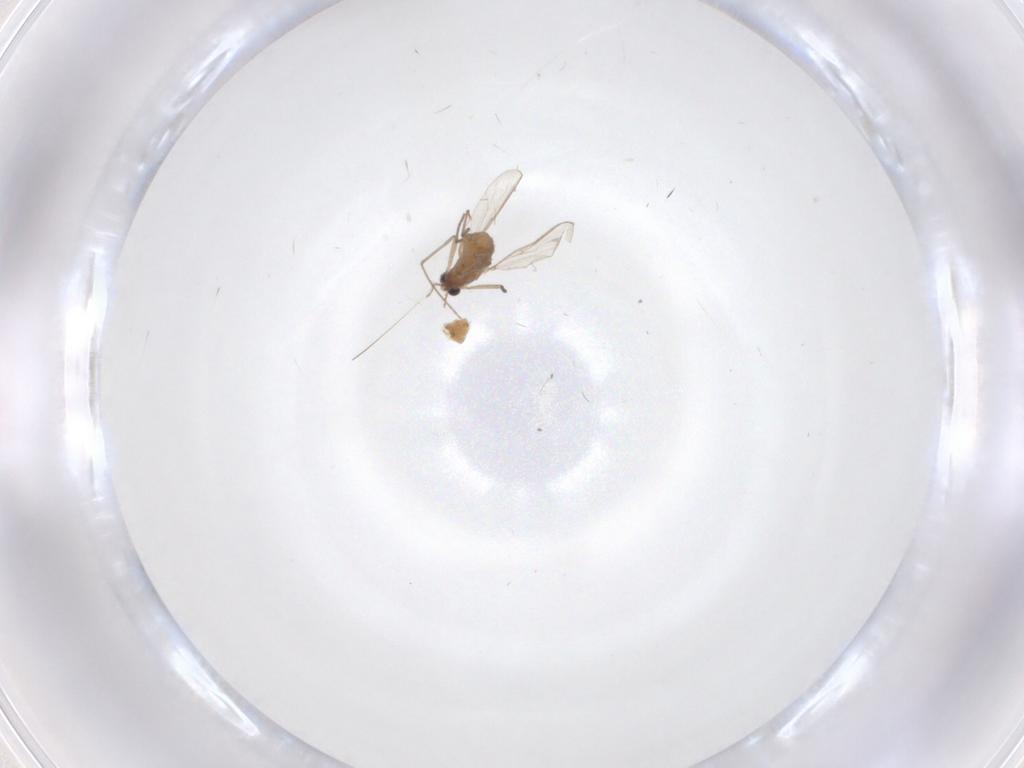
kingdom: Animalia
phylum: Arthropoda
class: Insecta
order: Diptera
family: Chironomidae
